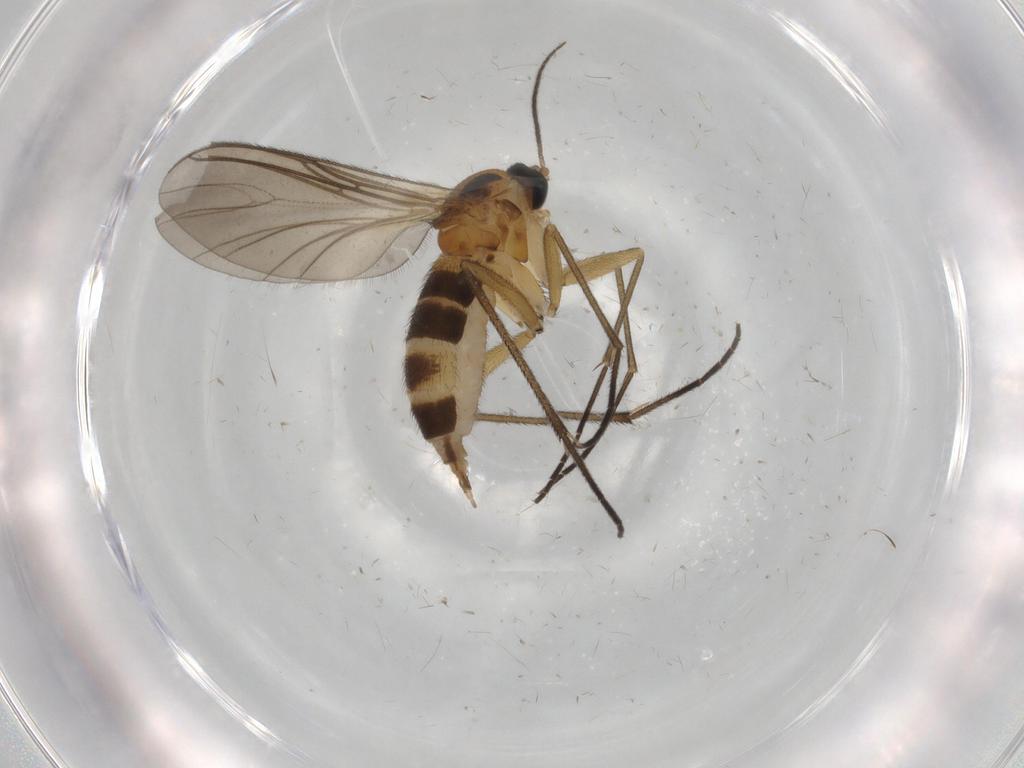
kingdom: Animalia
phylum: Arthropoda
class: Insecta
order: Diptera
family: Sciaridae
